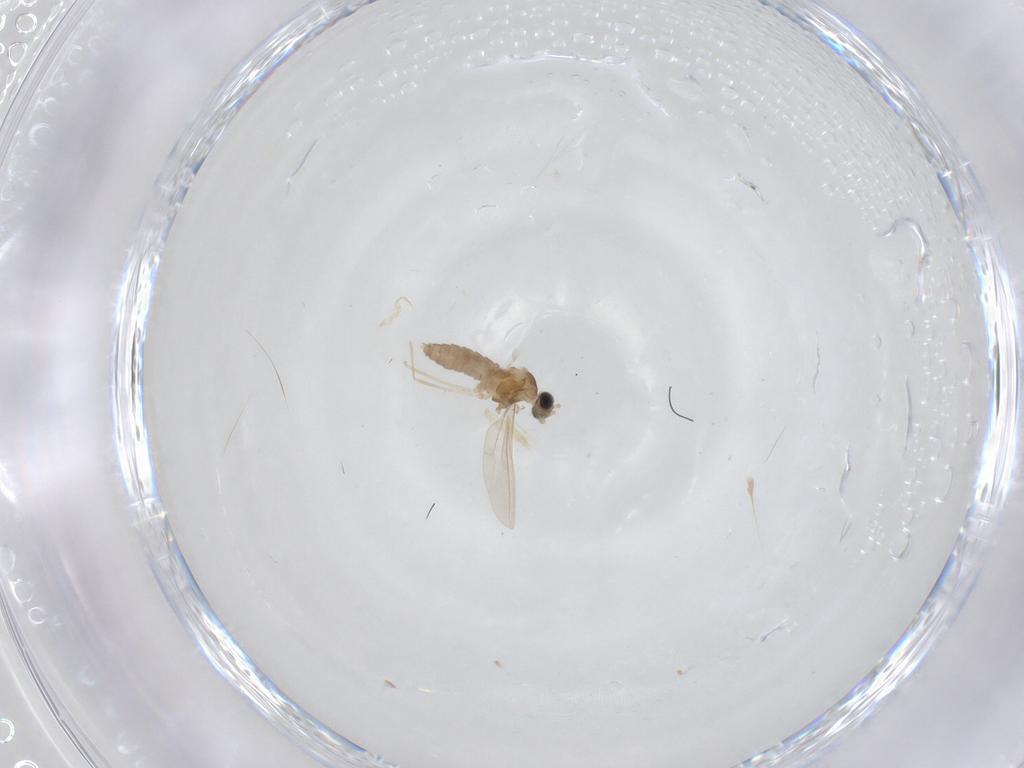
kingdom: Animalia
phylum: Arthropoda
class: Insecta
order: Diptera
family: Cecidomyiidae
